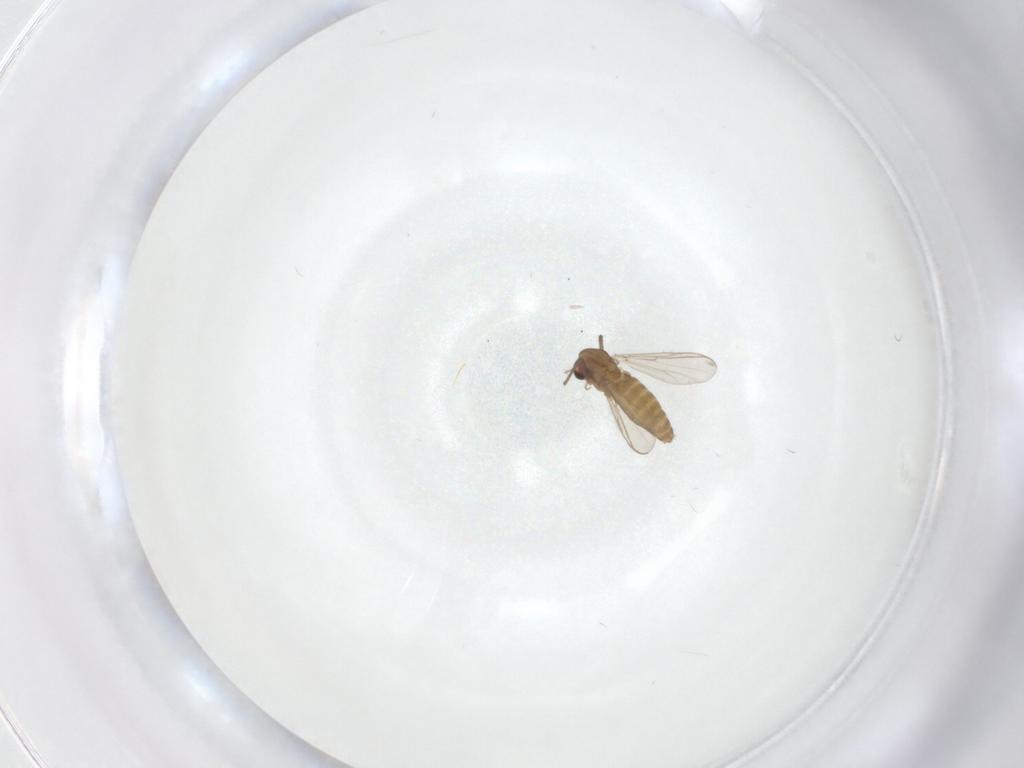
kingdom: Animalia
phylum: Arthropoda
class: Insecta
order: Diptera
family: Chironomidae
